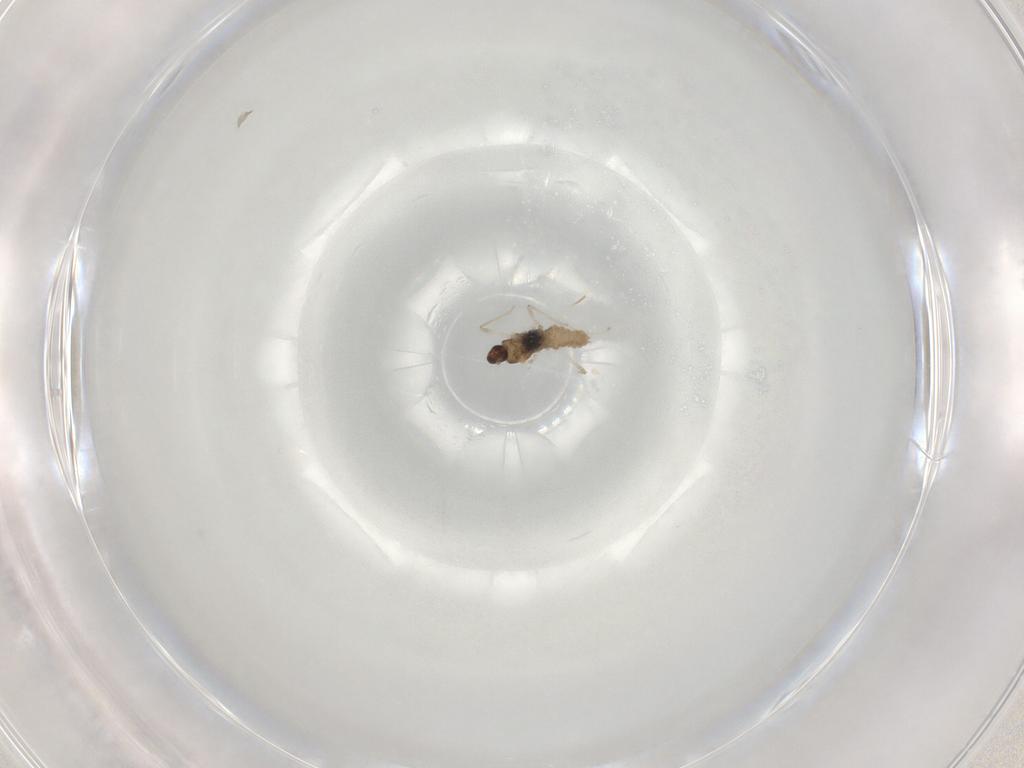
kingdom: Animalia
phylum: Arthropoda
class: Insecta
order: Diptera
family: Cecidomyiidae
